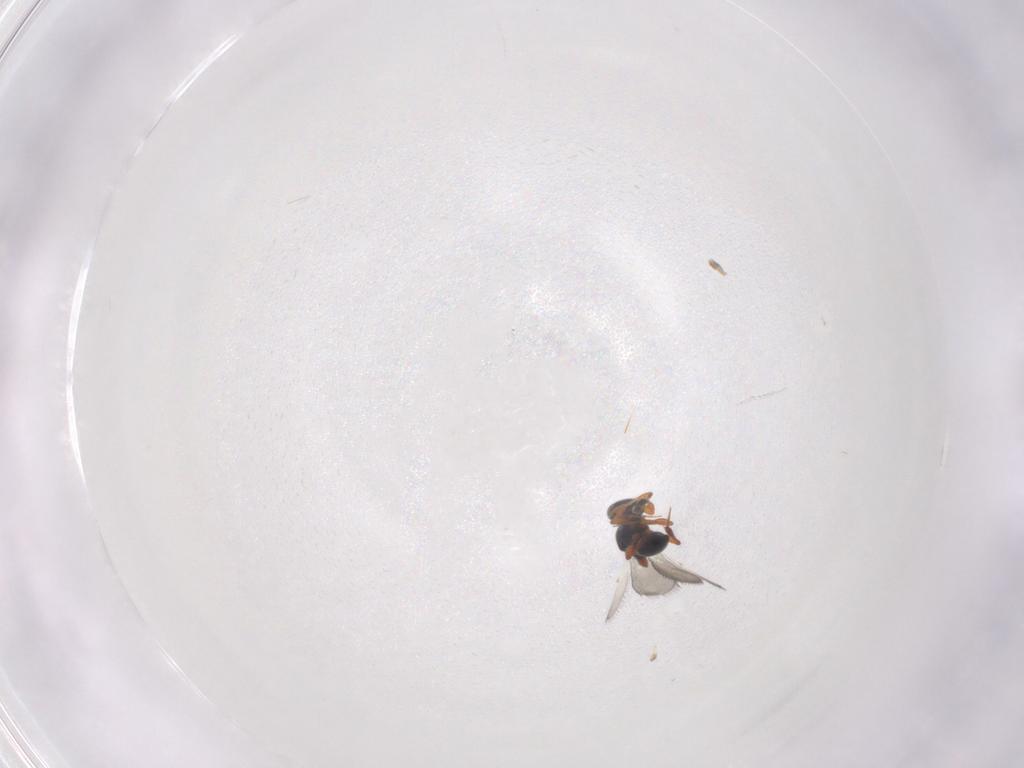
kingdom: Animalia
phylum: Arthropoda
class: Insecta
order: Hymenoptera
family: Platygastridae
